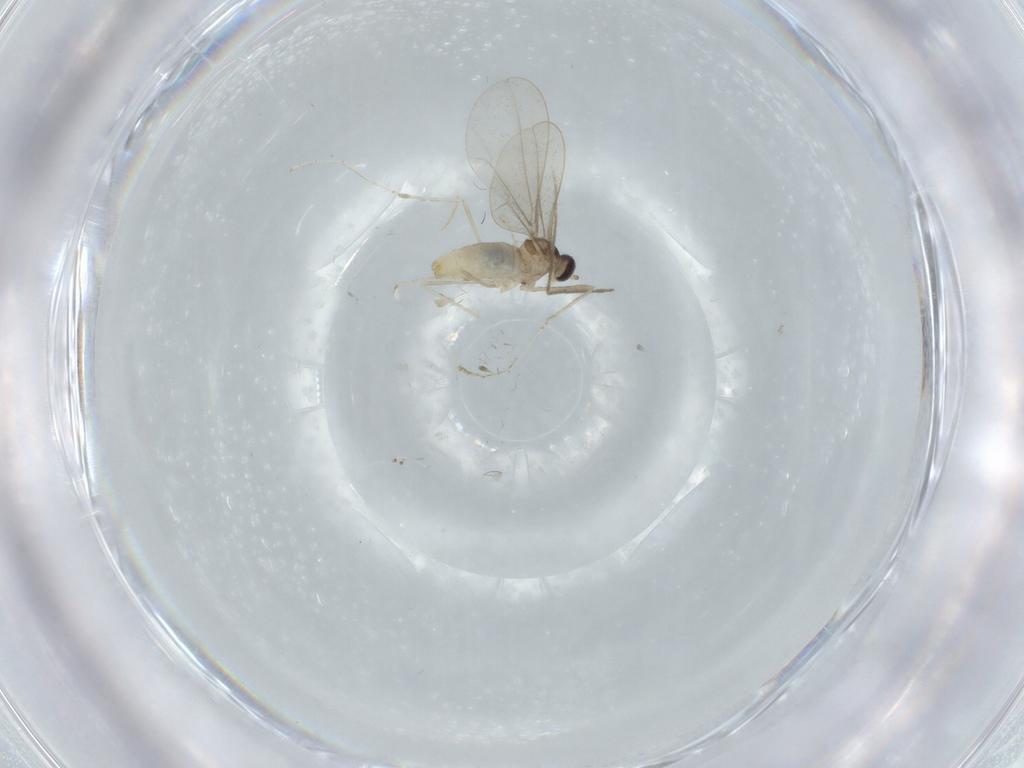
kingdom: Animalia
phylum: Arthropoda
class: Insecta
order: Diptera
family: Cecidomyiidae
